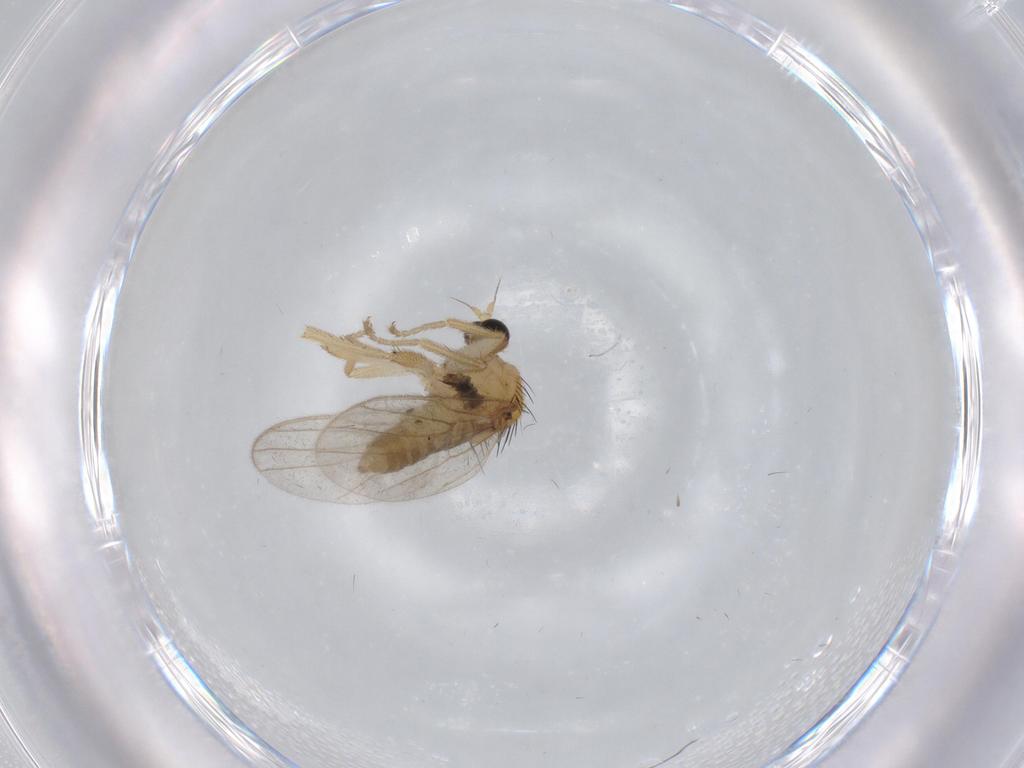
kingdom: Animalia
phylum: Arthropoda
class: Insecta
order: Diptera
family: Hybotidae
